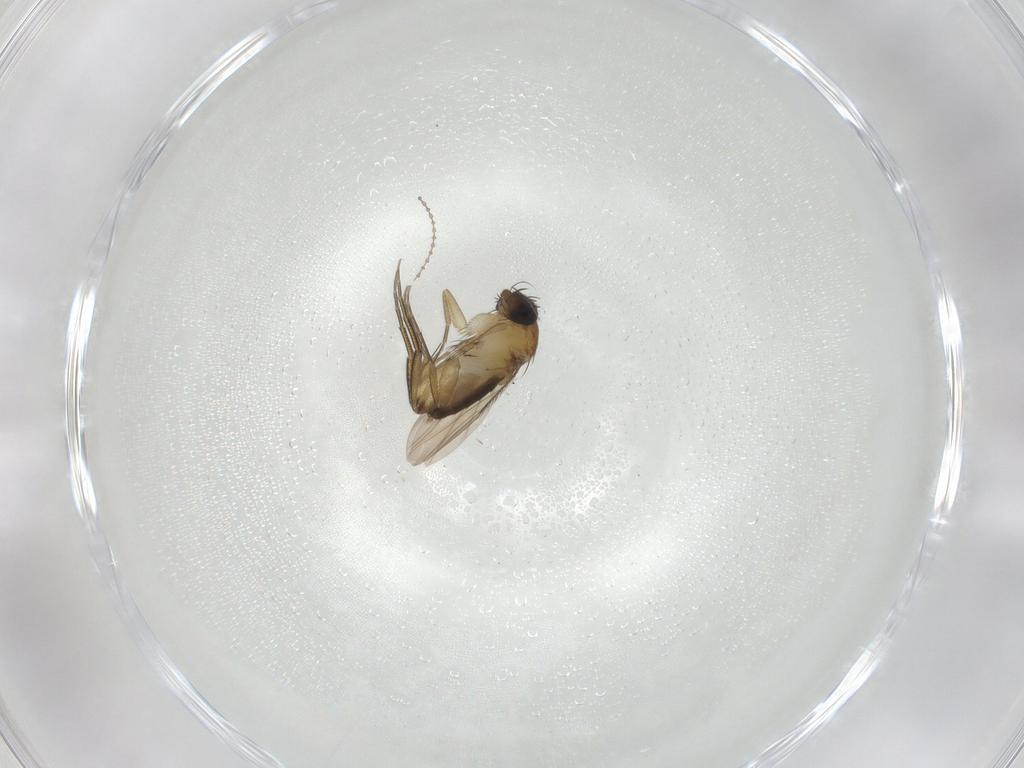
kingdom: Animalia
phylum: Arthropoda
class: Insecta
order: Diptera
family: Phoridae
